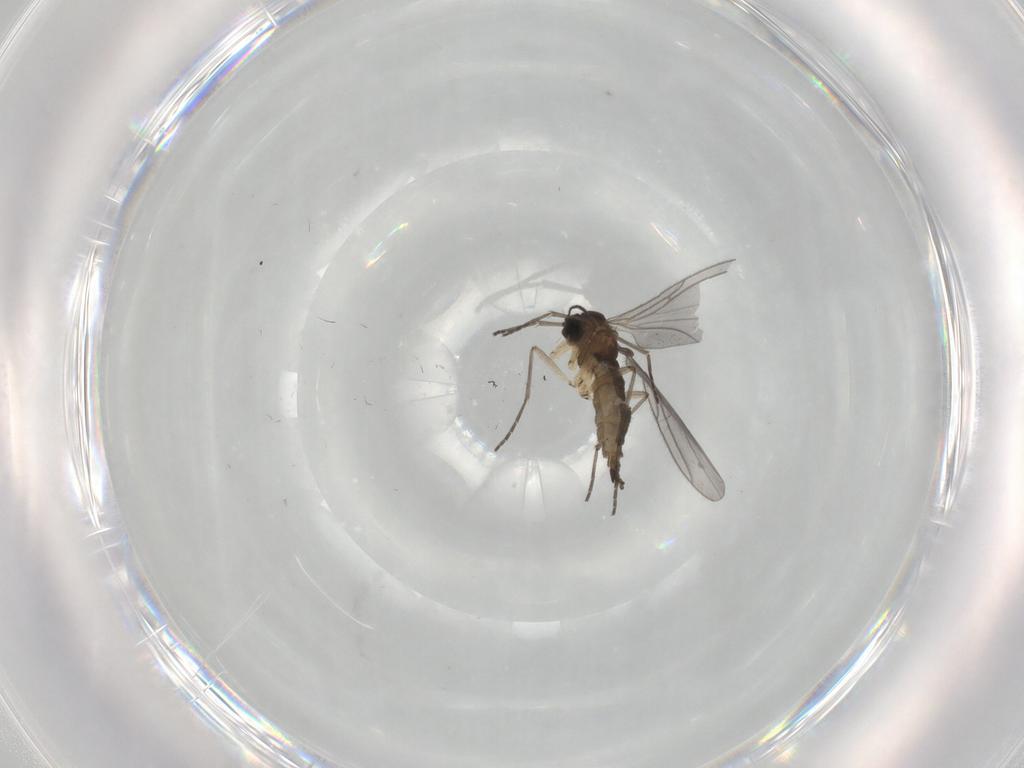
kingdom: Animalia
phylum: Arthropoda
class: Insecta
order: Diptera
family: Sciaridae
